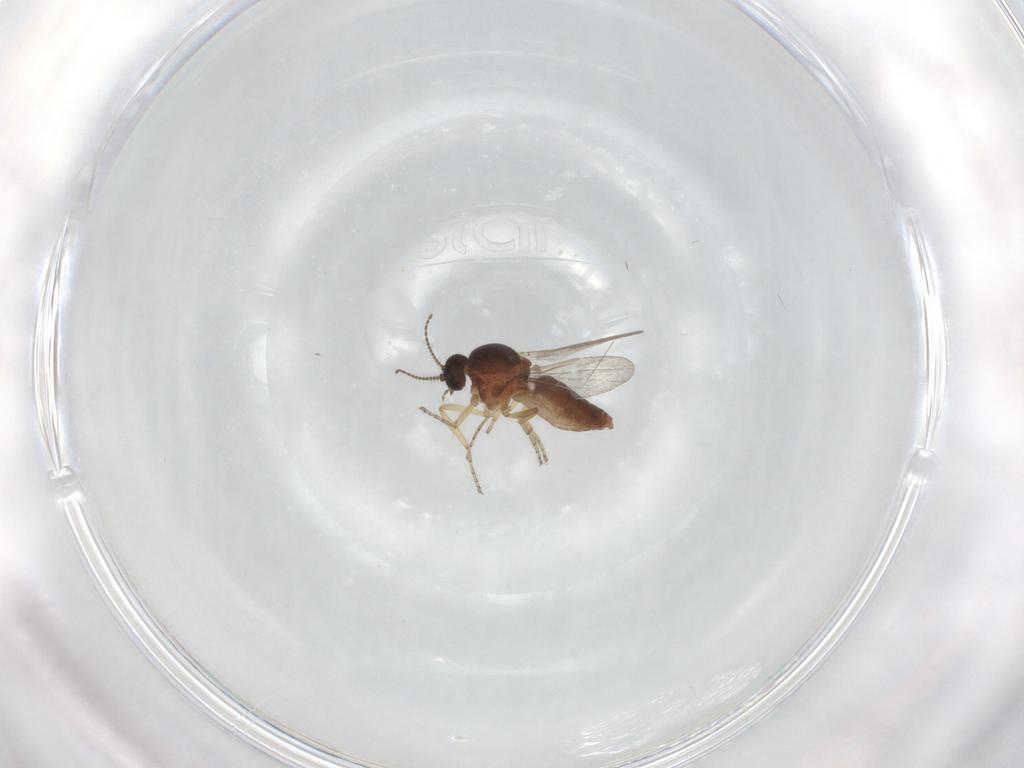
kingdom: Animalia
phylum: Arthropoda
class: Insecta
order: Diptera
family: Ceratopogonidae
